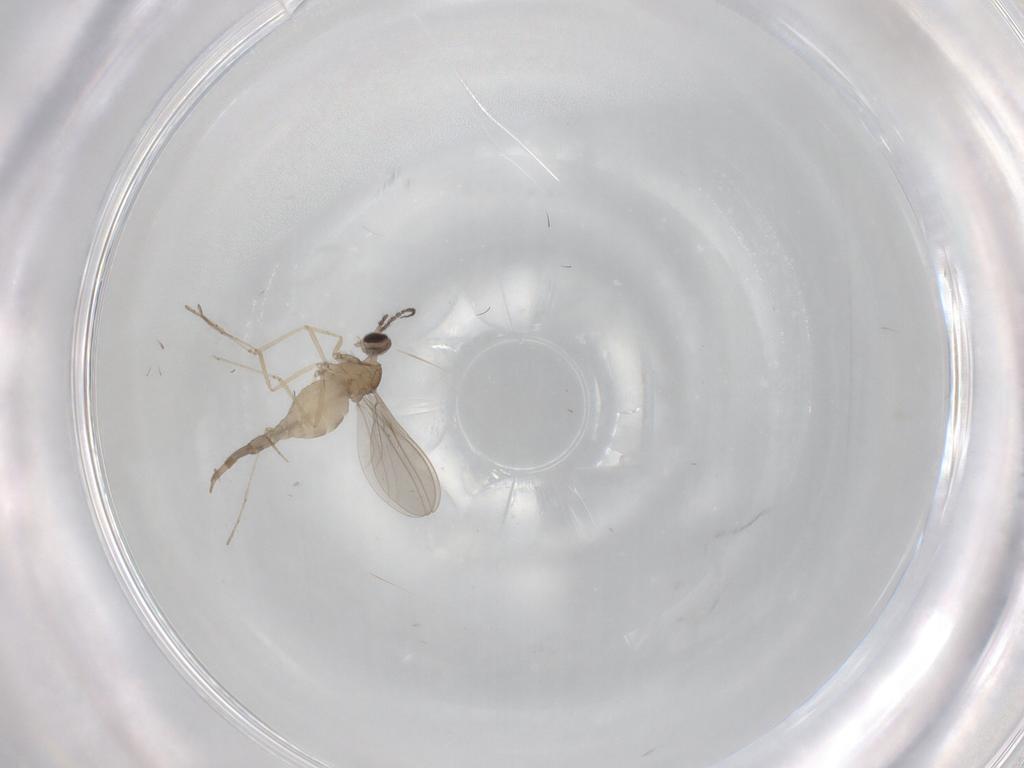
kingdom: Animalia
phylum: Arthropoda
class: Insecta
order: Diptera
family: Cecidomyiidae
